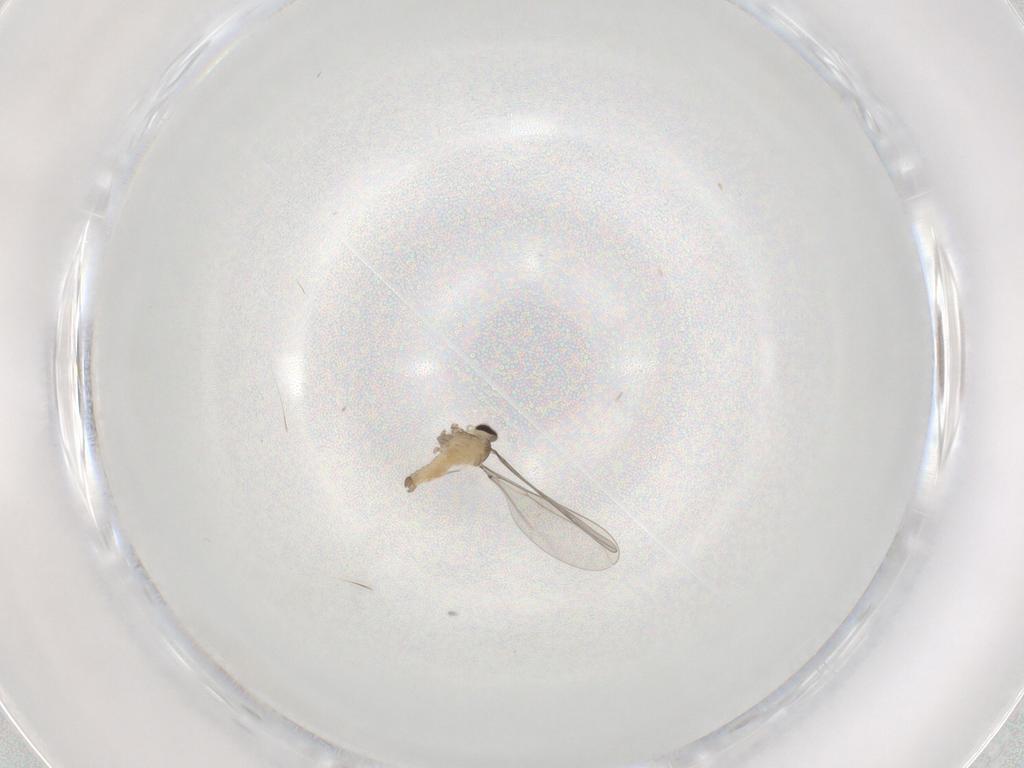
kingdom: Animalia
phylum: Arthropoda
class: Insecta
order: Diptera
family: Cecidomyiidae
